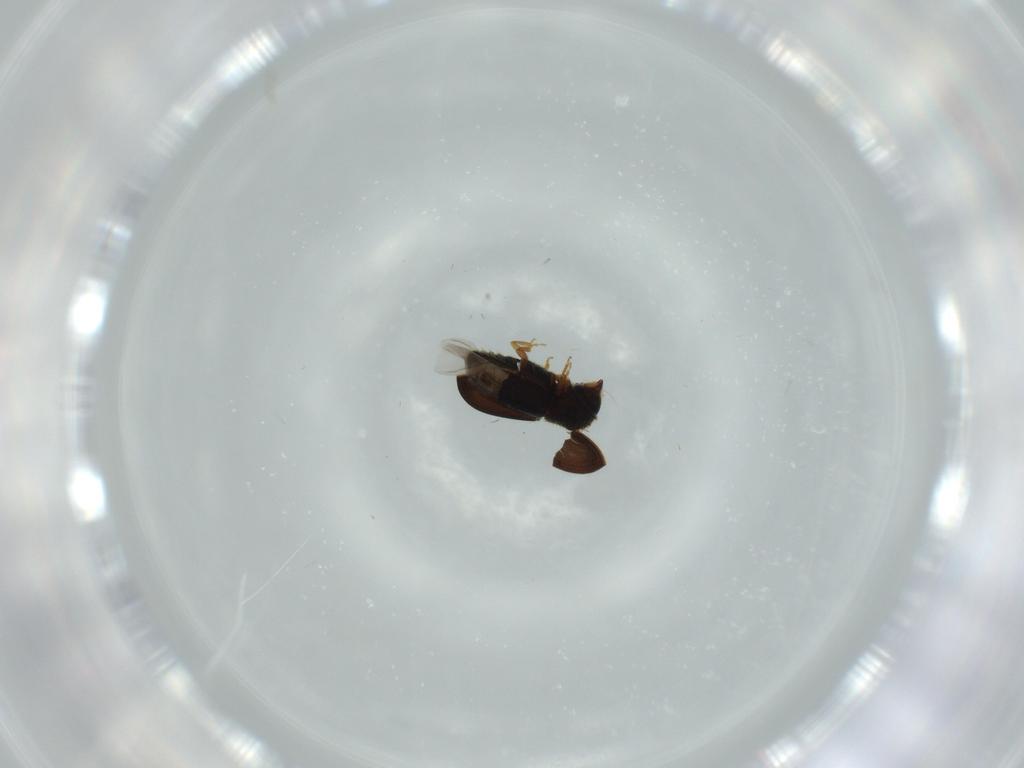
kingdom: Animalia
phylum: Arthropoda
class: Insecta
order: Coleoptera
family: Curculionidae
